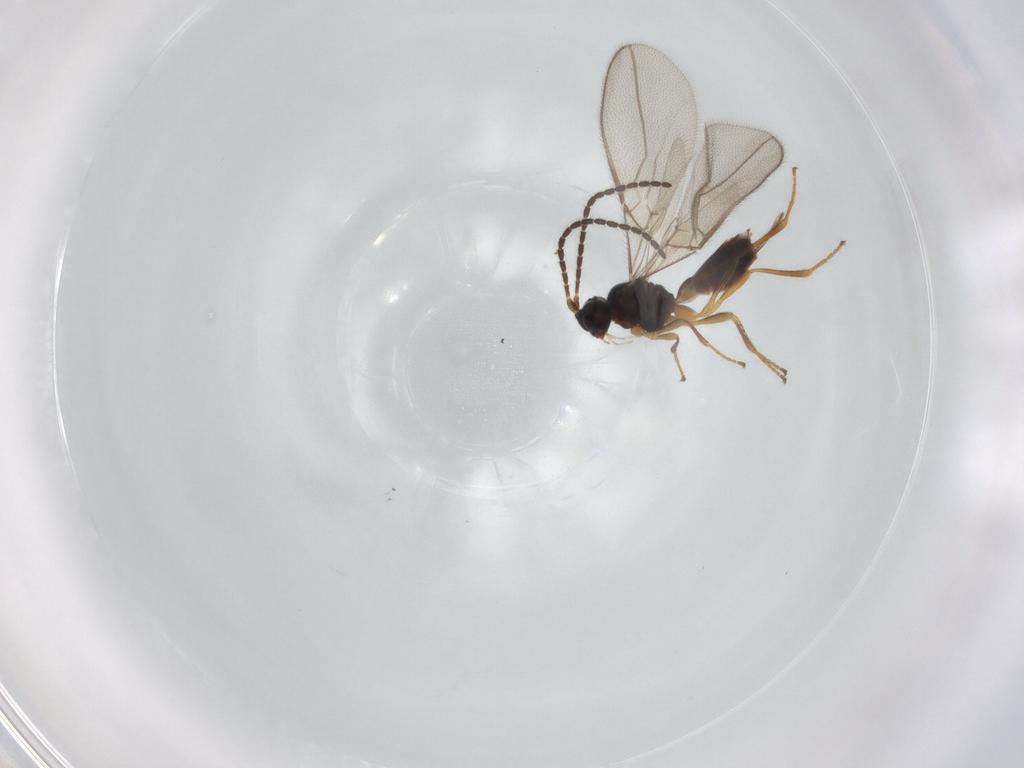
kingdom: Animalia
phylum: Arthropoda
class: Insecta
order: Hymenoptera
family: Braconidae
